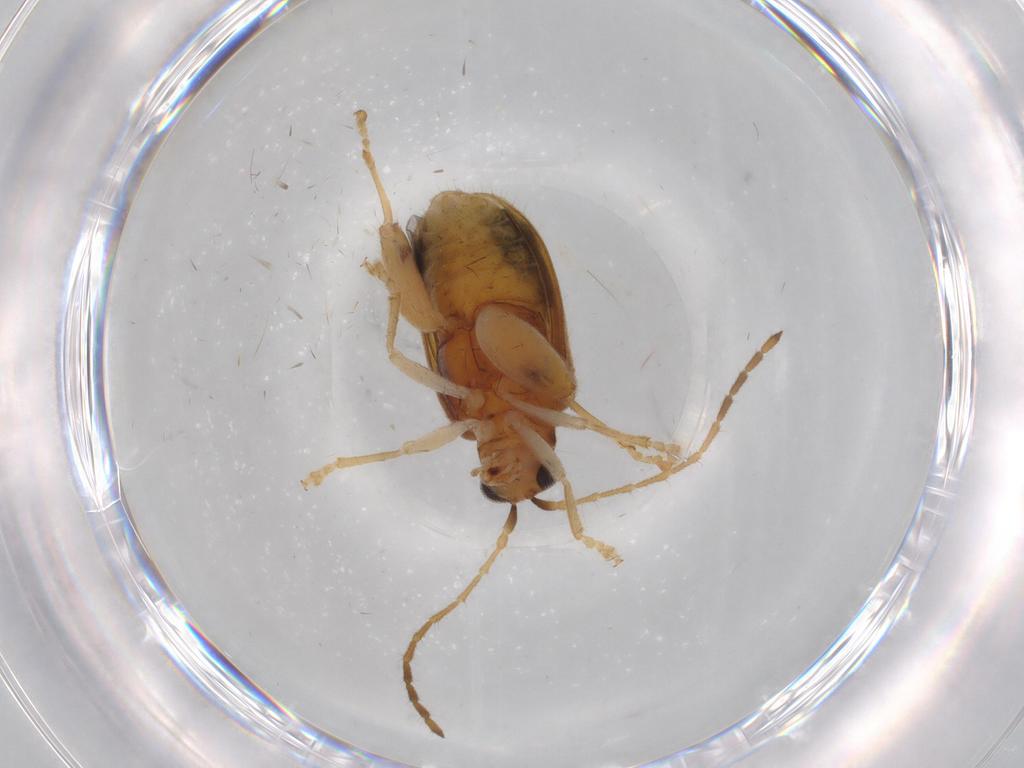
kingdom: Animalia
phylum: Arthropoda
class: Insecta
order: Coleoptera
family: Chrysomelidae
